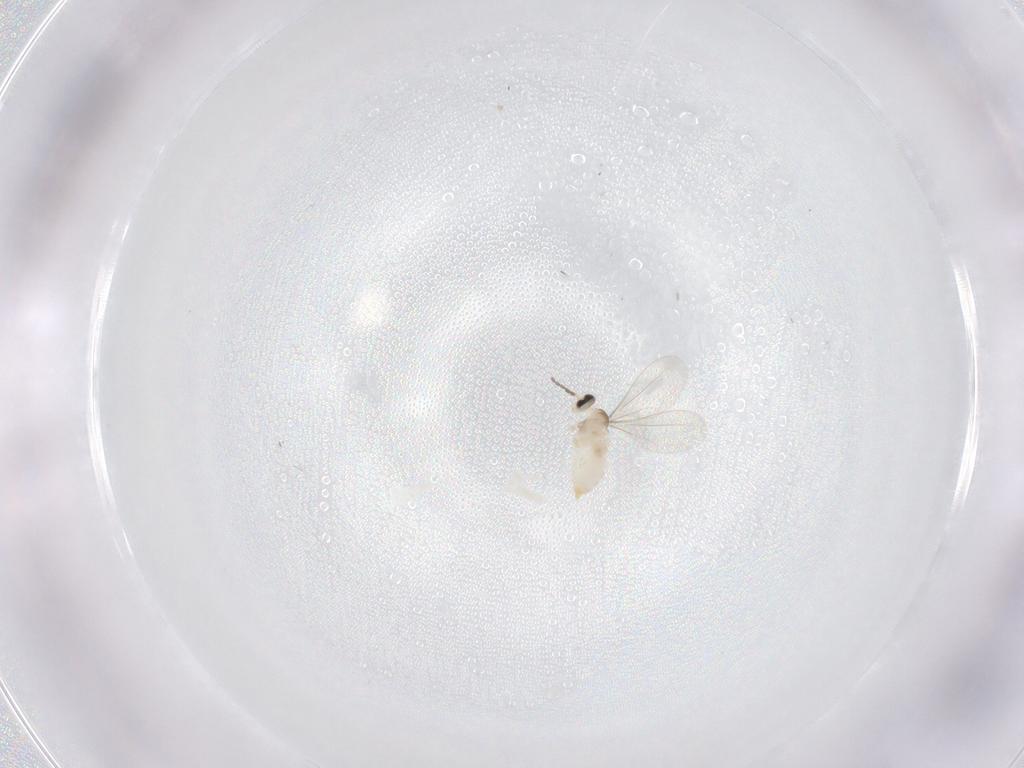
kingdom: Animalia
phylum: Arthropoda
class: Insecta
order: Diptera
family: Cecidomyiidae
